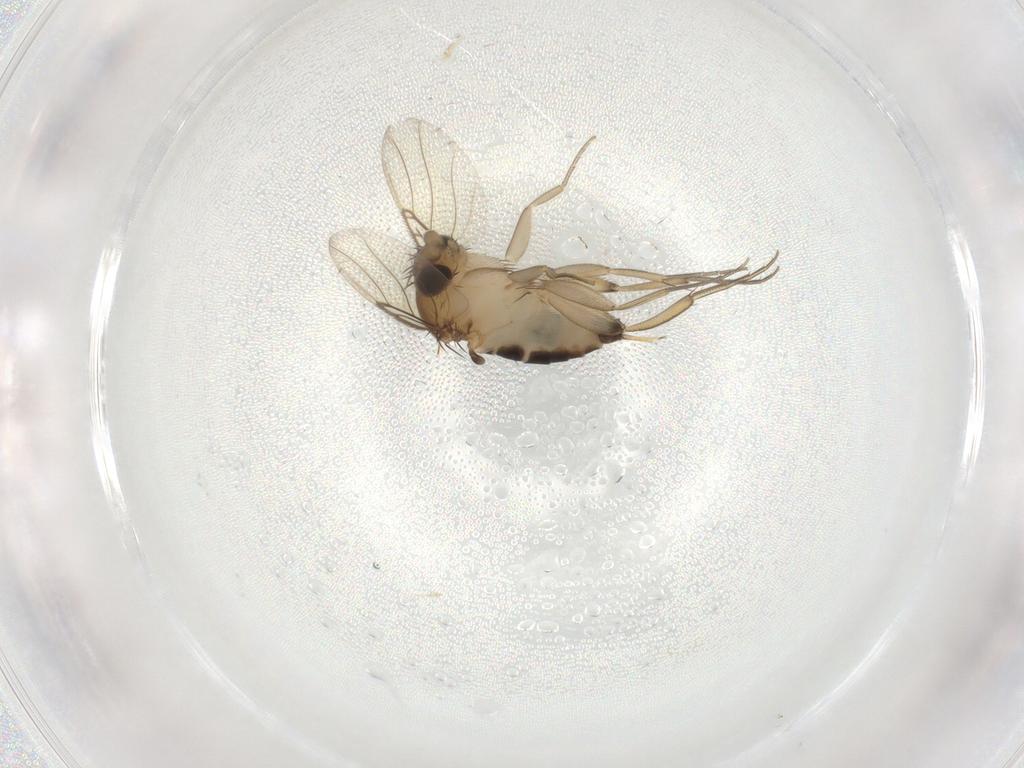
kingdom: Animalia
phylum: Arthropoda
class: Insecta
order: Diptera
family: Phoridae
